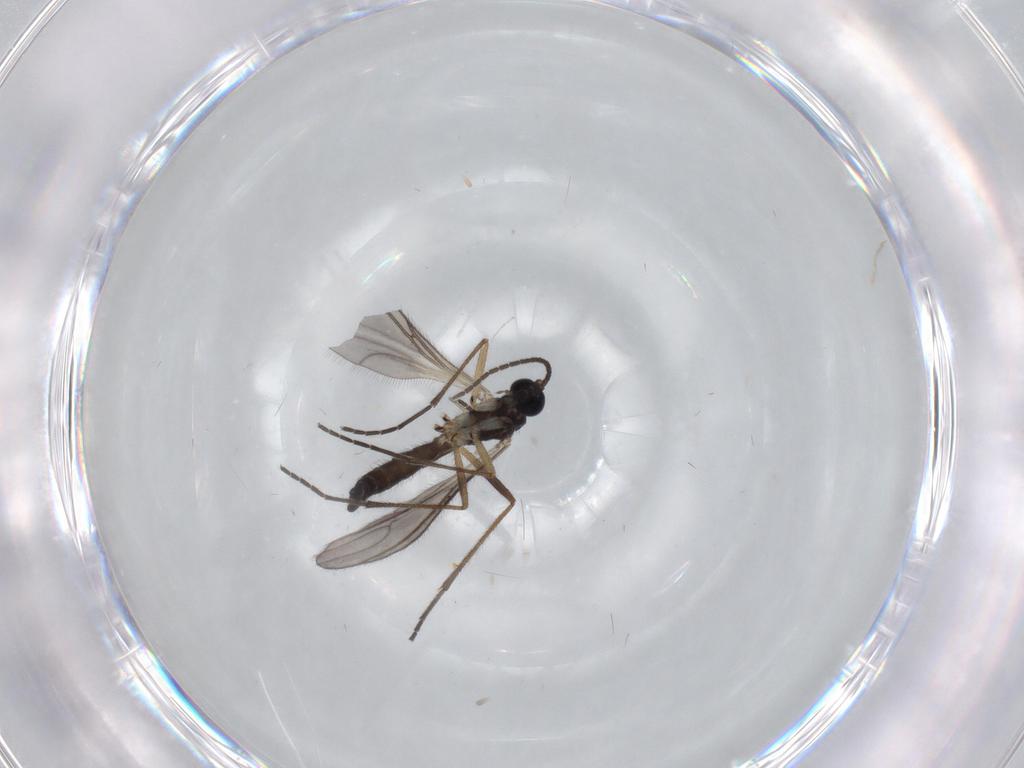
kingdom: Animalia
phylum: Arthropoda
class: Insecta
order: Diptera
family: Sciaridae
